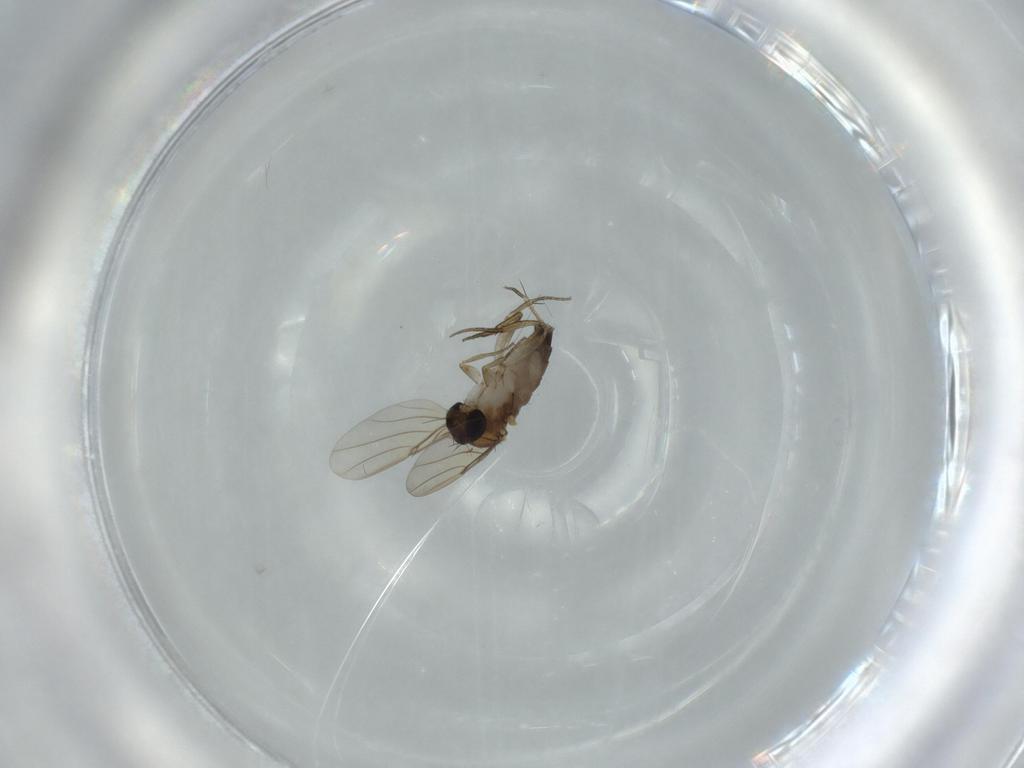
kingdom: Animalia
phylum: Arthropoda
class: Insecta
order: Diptera
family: Phoridae
